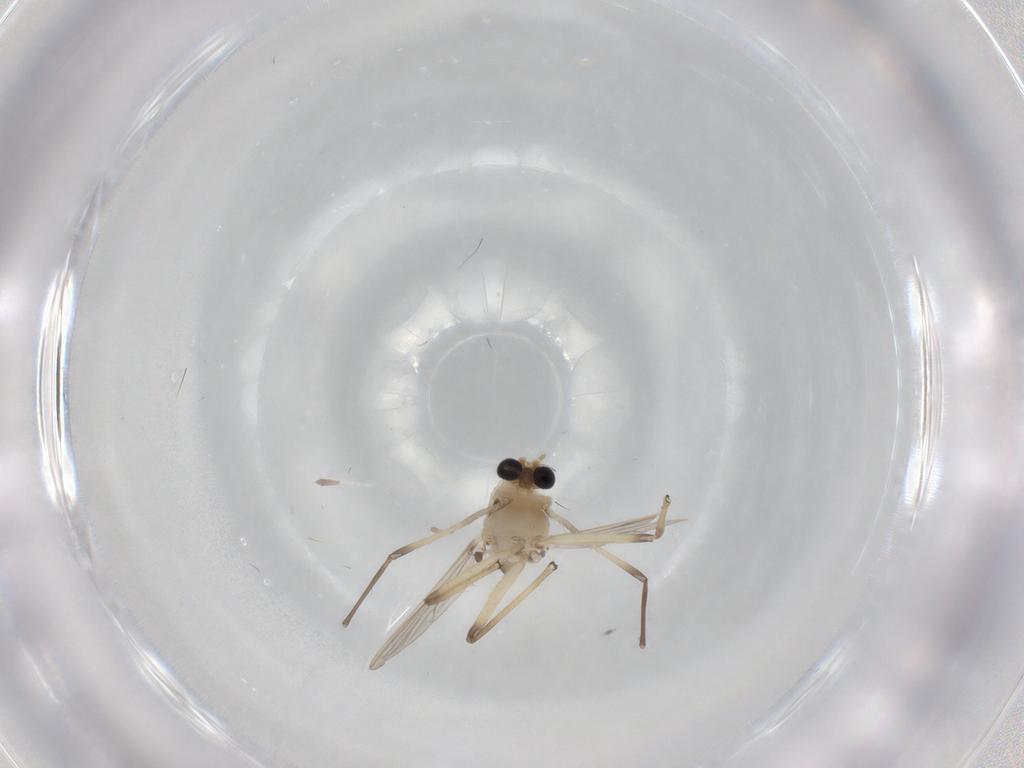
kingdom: Animalia
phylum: Arthropoda
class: Insecta
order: Diptera
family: Chironomidae
